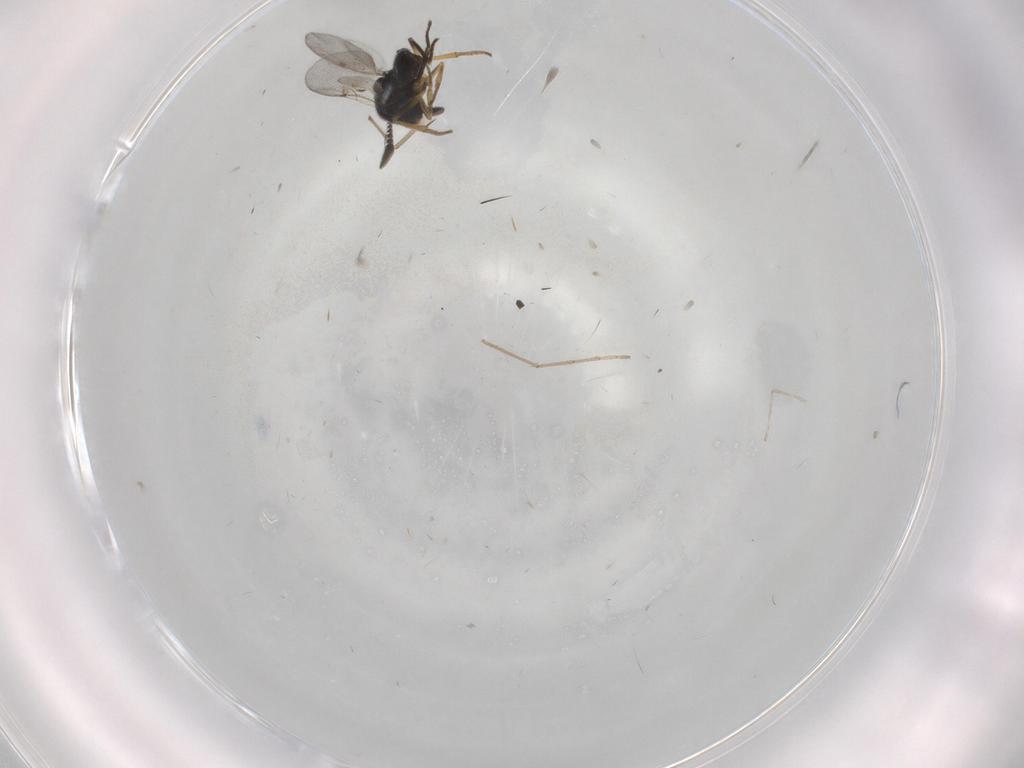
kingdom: Animalia
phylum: Arthropoda
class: Insecta
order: Hymenoptera
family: Encyrtidae
